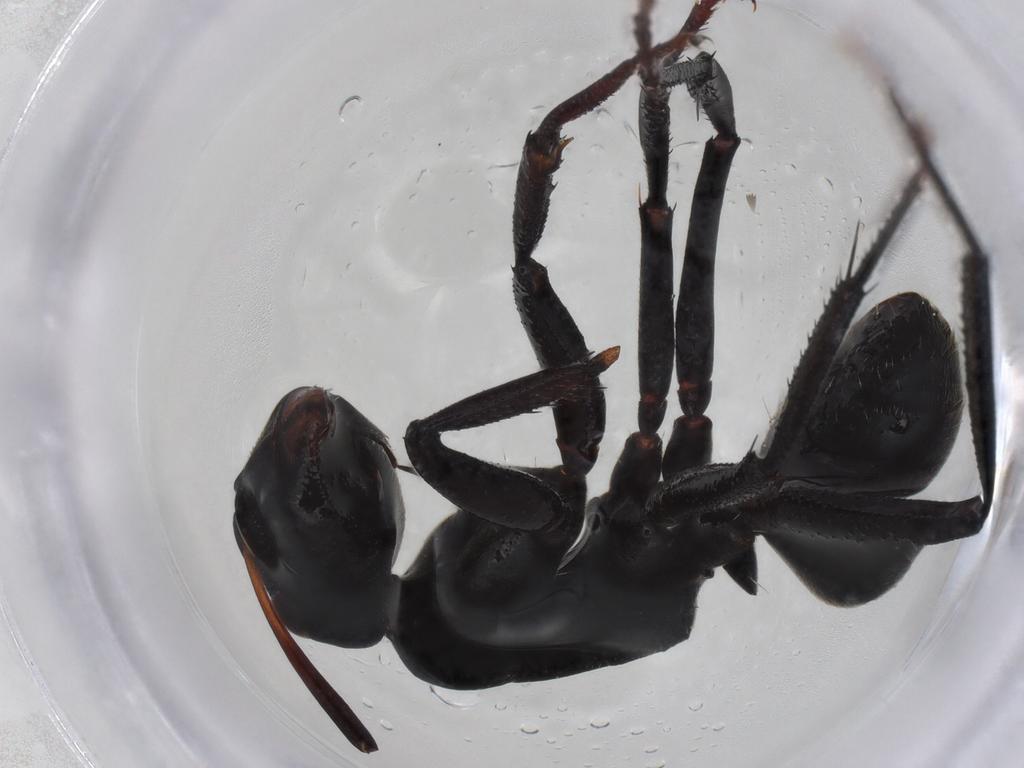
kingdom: Animalia
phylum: Arthropoda
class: Insecta
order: Hymenoptera
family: Formicidae
